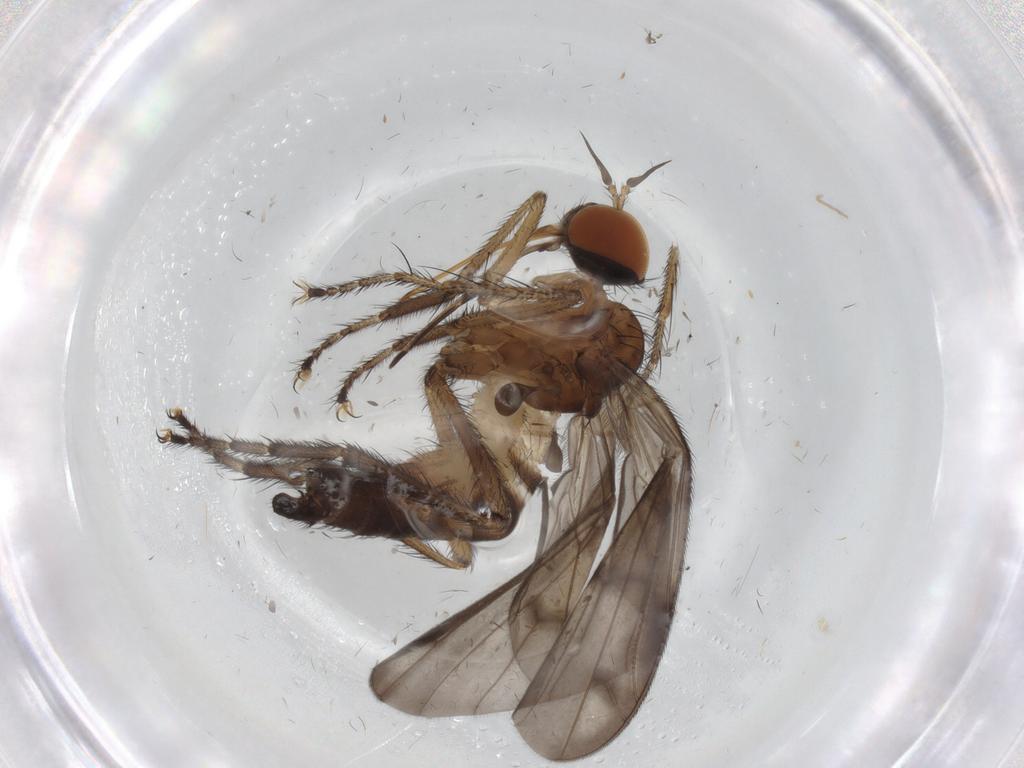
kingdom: Animalia
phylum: Arthropoda
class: Insecta
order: Diptera
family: Empididae
